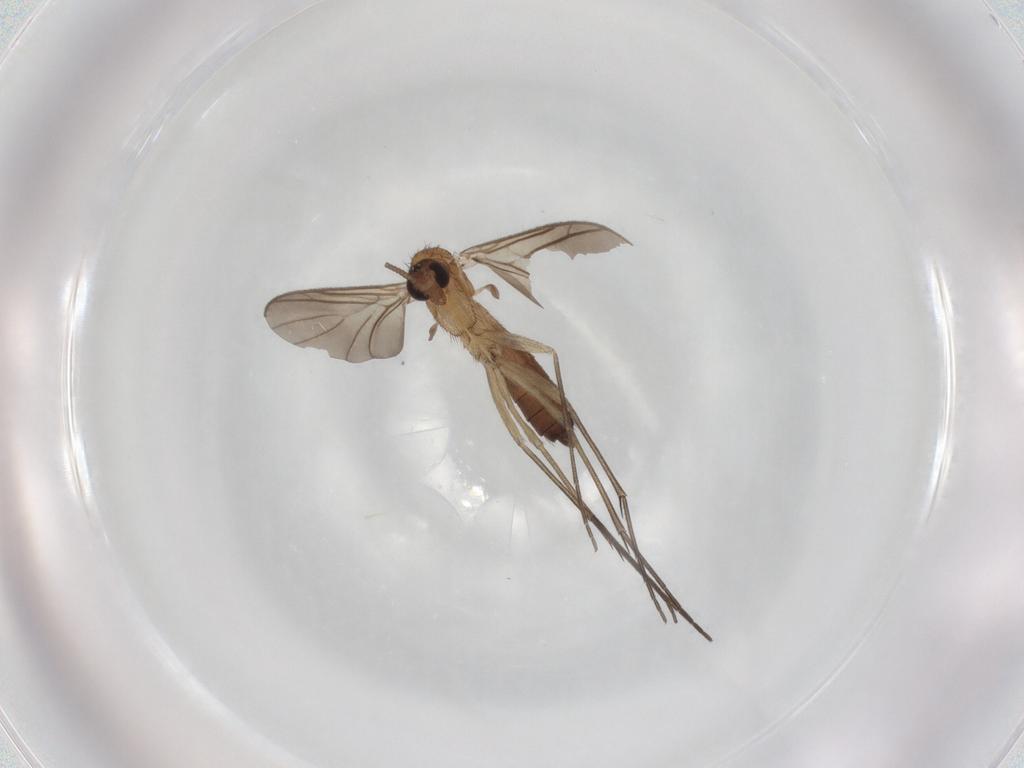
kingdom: Animalia
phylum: Arthropoda
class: Insecta
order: Diptera
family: Keroplatidae
